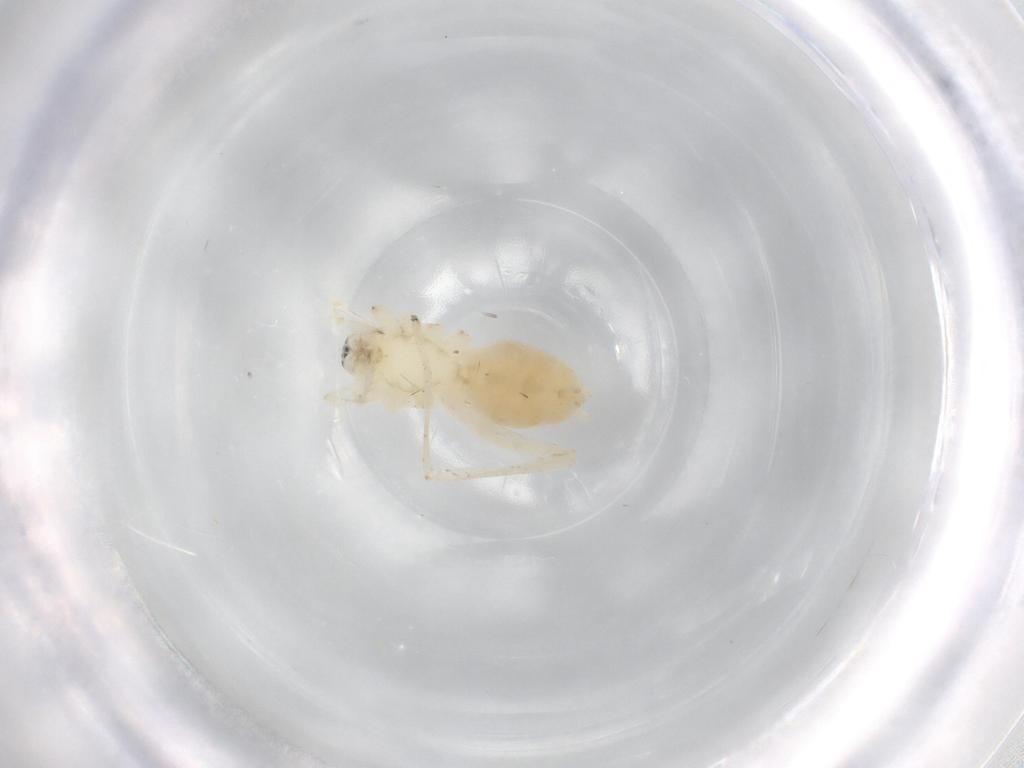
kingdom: Animalia
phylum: Arthropoda
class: Arachnida
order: Araneae
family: Anyphaenidae
